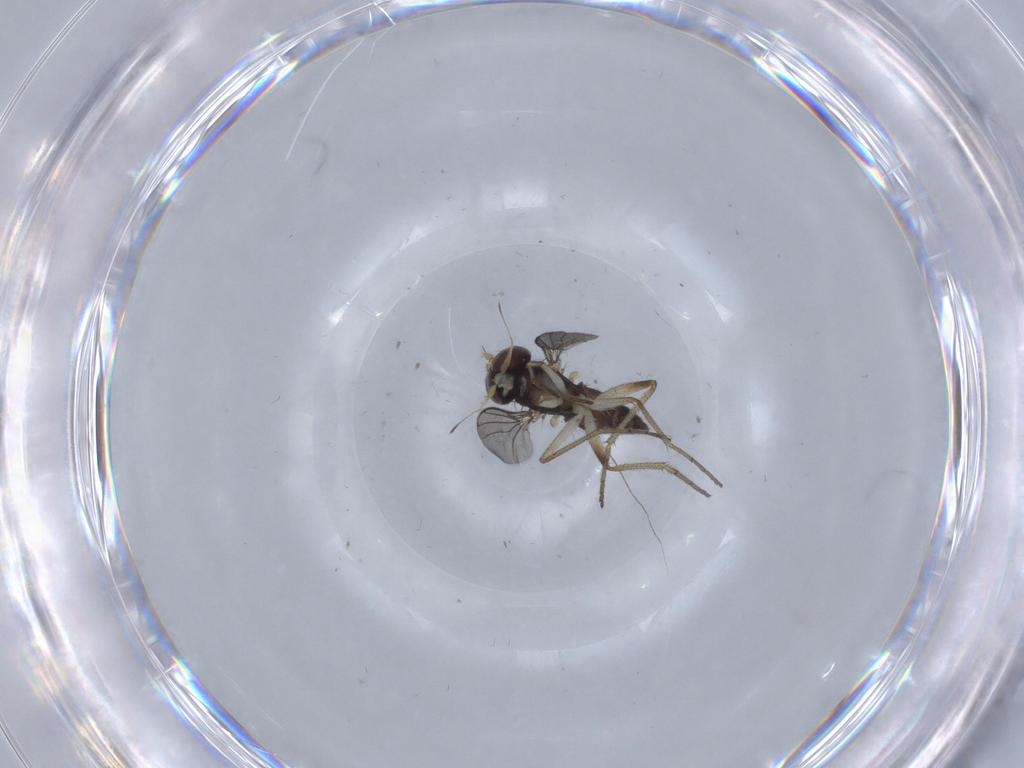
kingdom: Animalia
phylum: Arthropoda
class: Insecta
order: Diptera
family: Dolichopodidae
